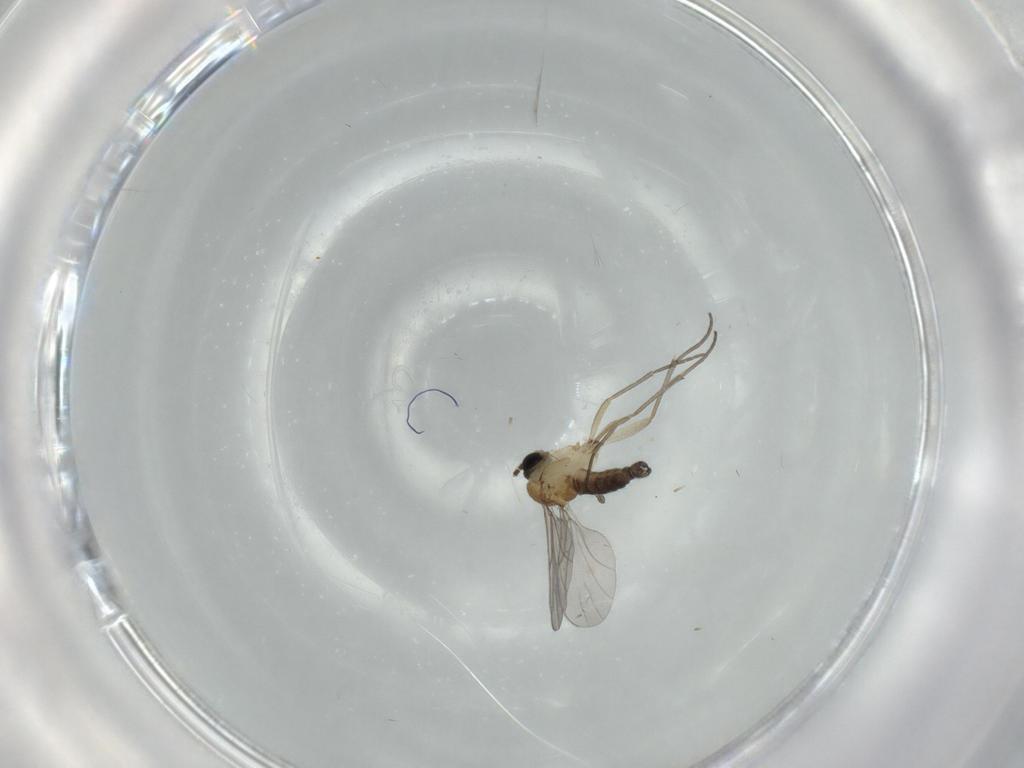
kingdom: Animalia
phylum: Arthropoda
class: Insecta
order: Diptera
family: Sciaridae
